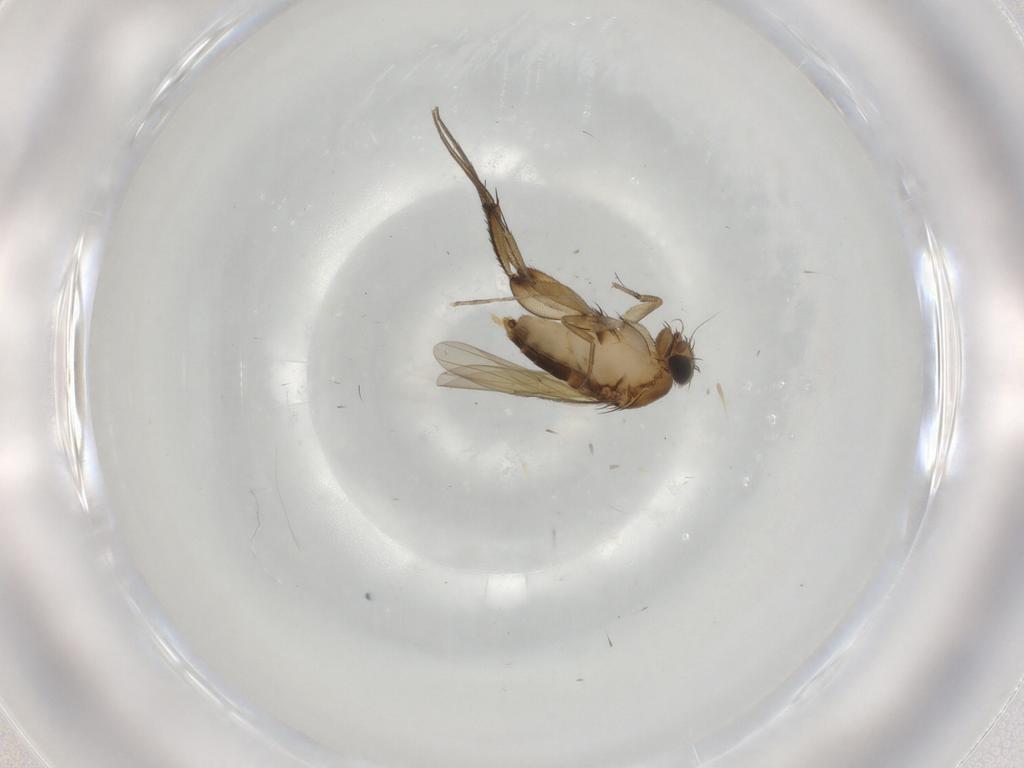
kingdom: Animalia
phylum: Arthropoda
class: Insecta
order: Diptera
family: Phoridae
